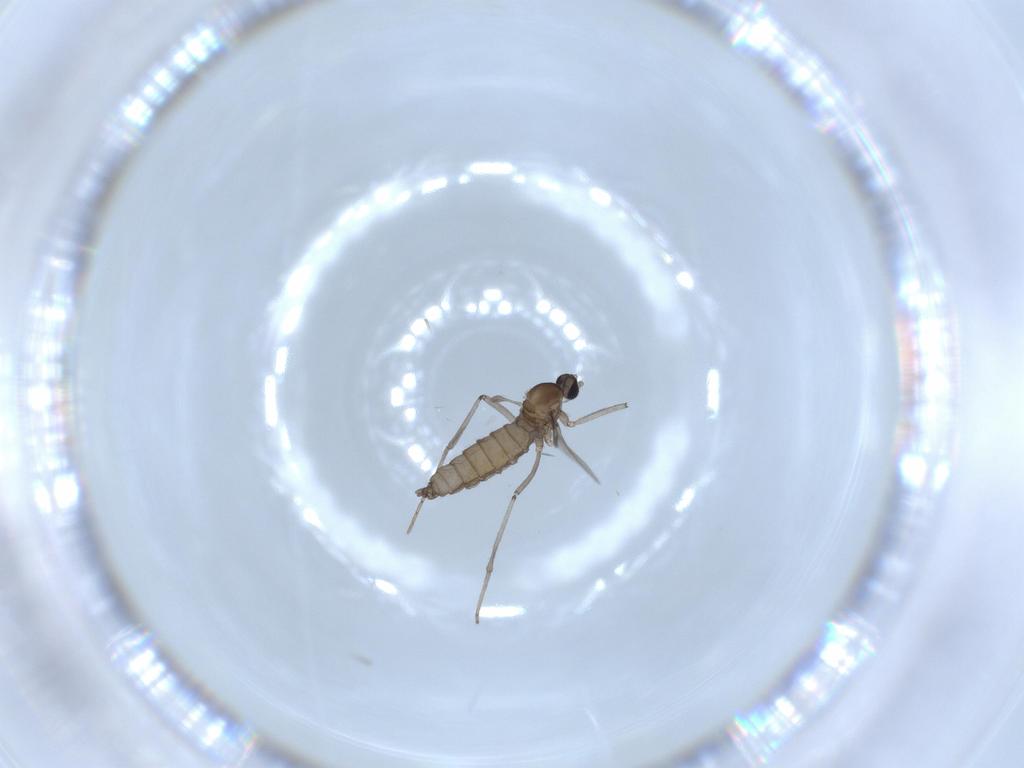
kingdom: Animalia
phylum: Arthropoda
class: Insecta
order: Diptera
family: Cecidomyiidae
